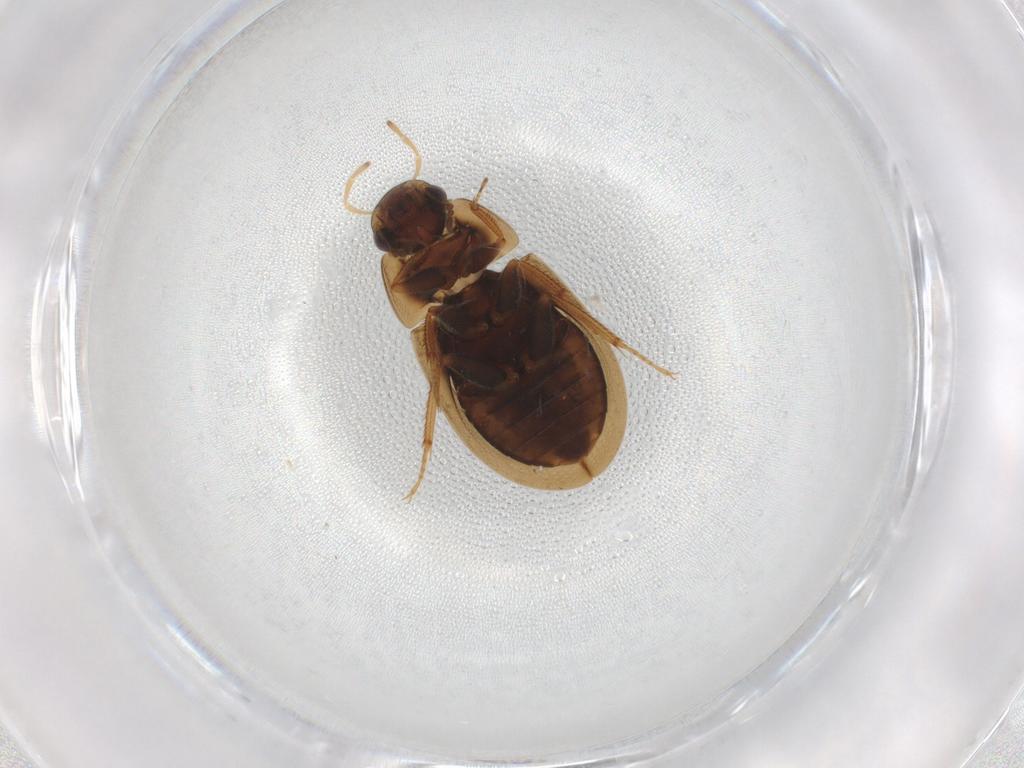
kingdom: Animalia
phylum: Arthropoda
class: Insecta
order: Coleoptera
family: Hydrophilidae
